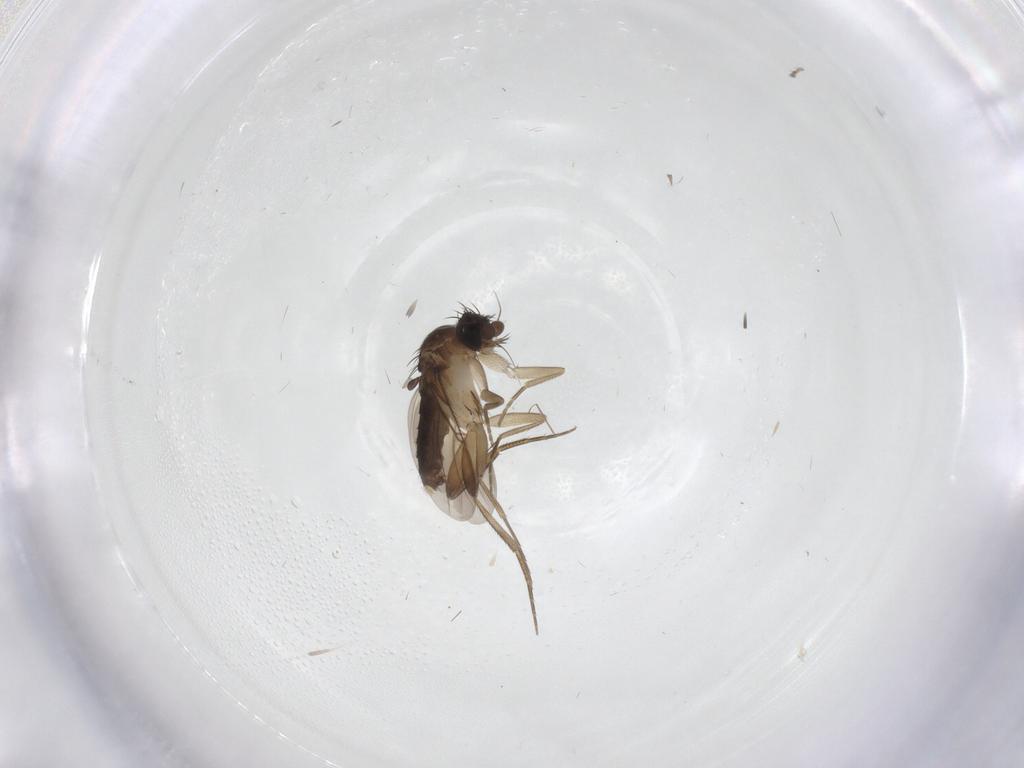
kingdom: Animalia
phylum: Arthropoda
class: Insecta
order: Diptera
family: Phoridae
